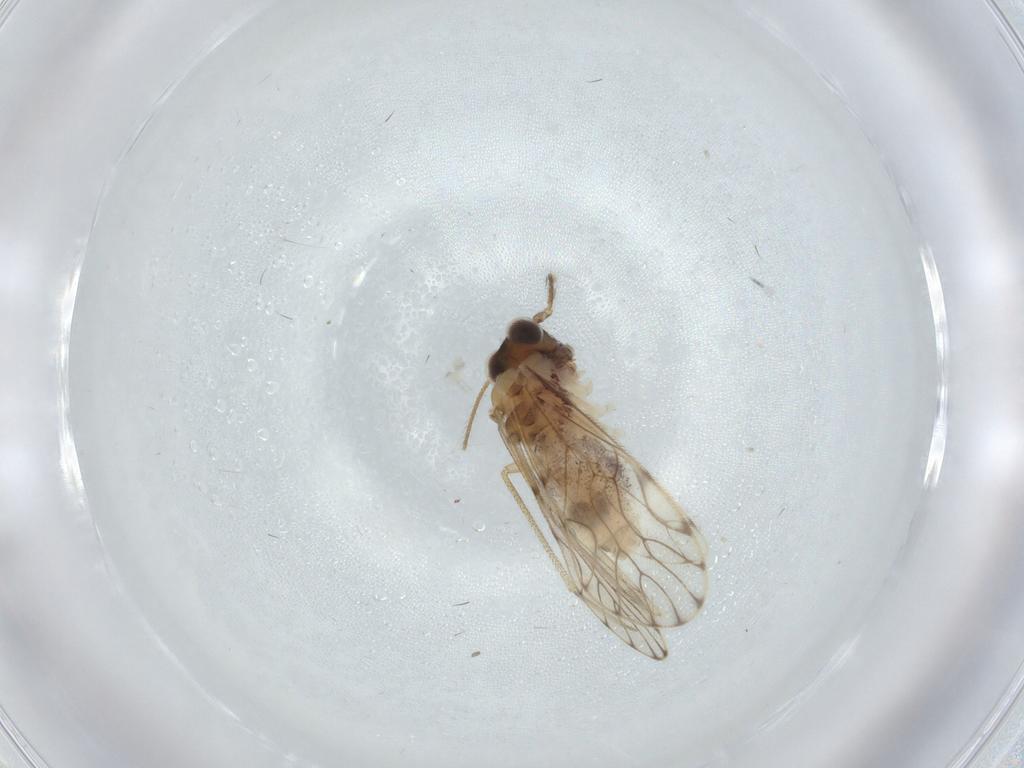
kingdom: Animalia
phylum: Arthropoda
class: Insecta
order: Psocodea
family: Epipsocidae
